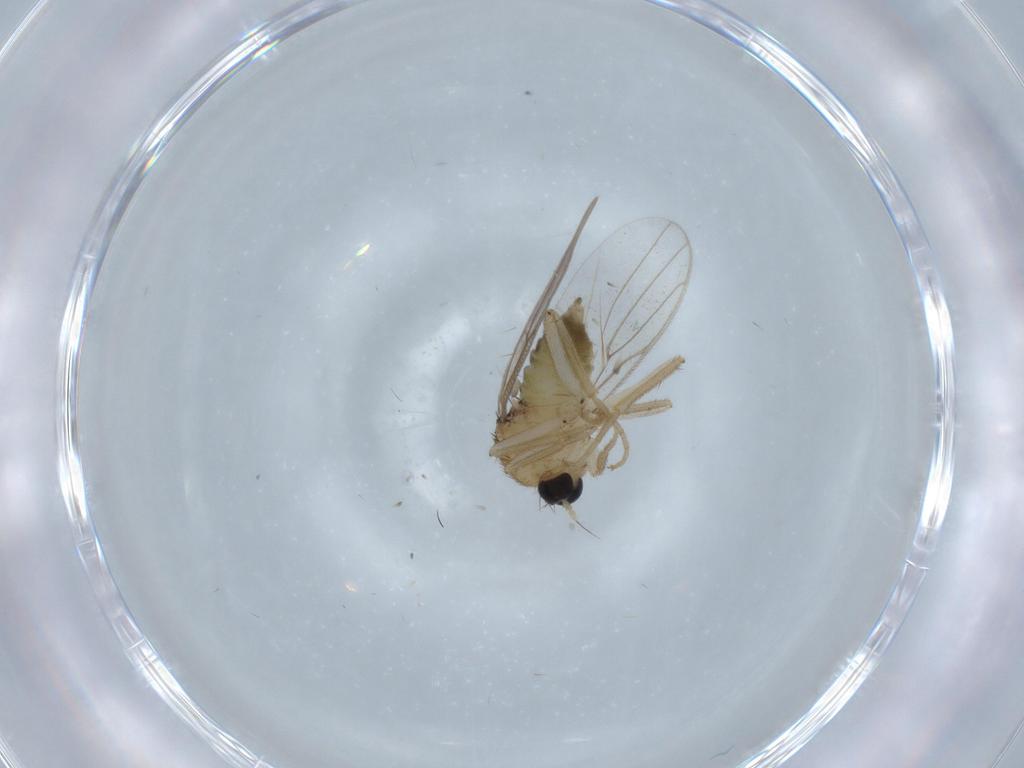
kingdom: Animalia
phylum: Arthropoda
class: Insecta
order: Diptera
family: Hybotidae
